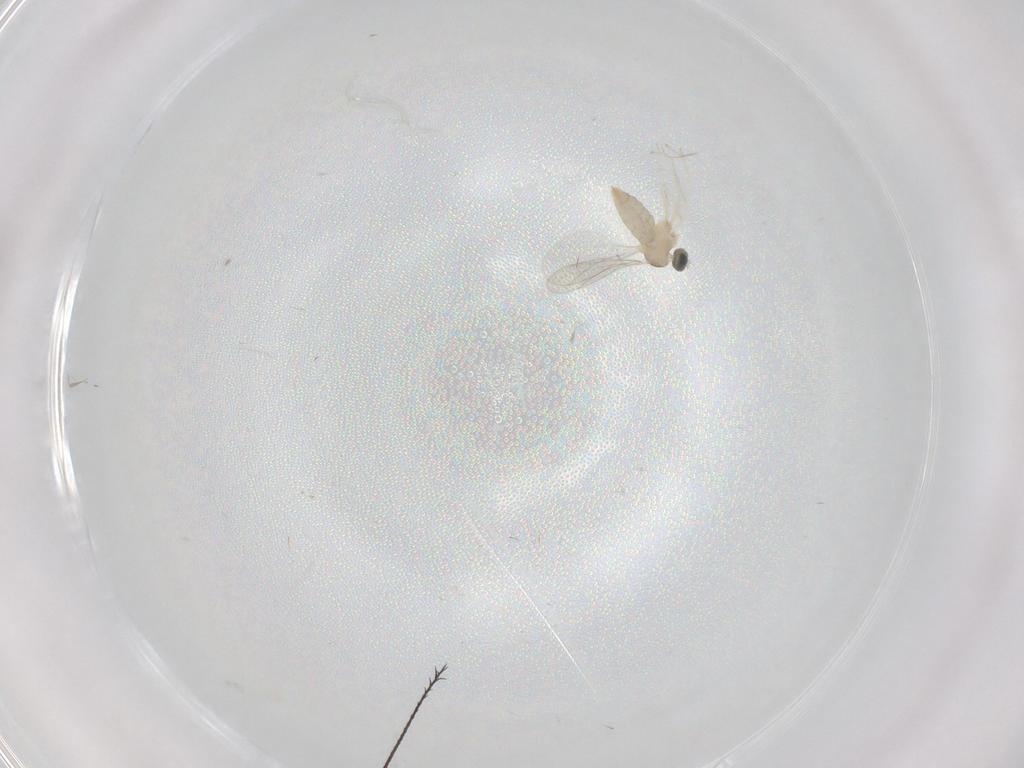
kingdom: Animalia
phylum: Arthropoda
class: Insecta
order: Diptera
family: Cecidomyiidae
